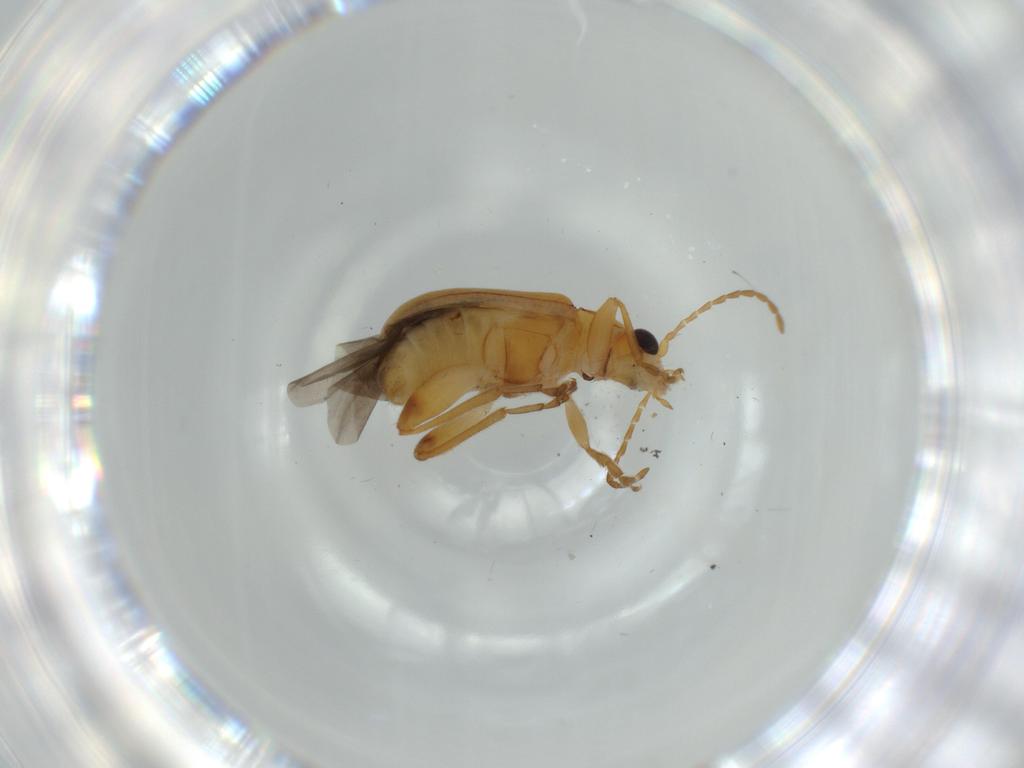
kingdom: Animalia
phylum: Arthropoda
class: Insecta
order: Coleoptera
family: Chrysomelidae
